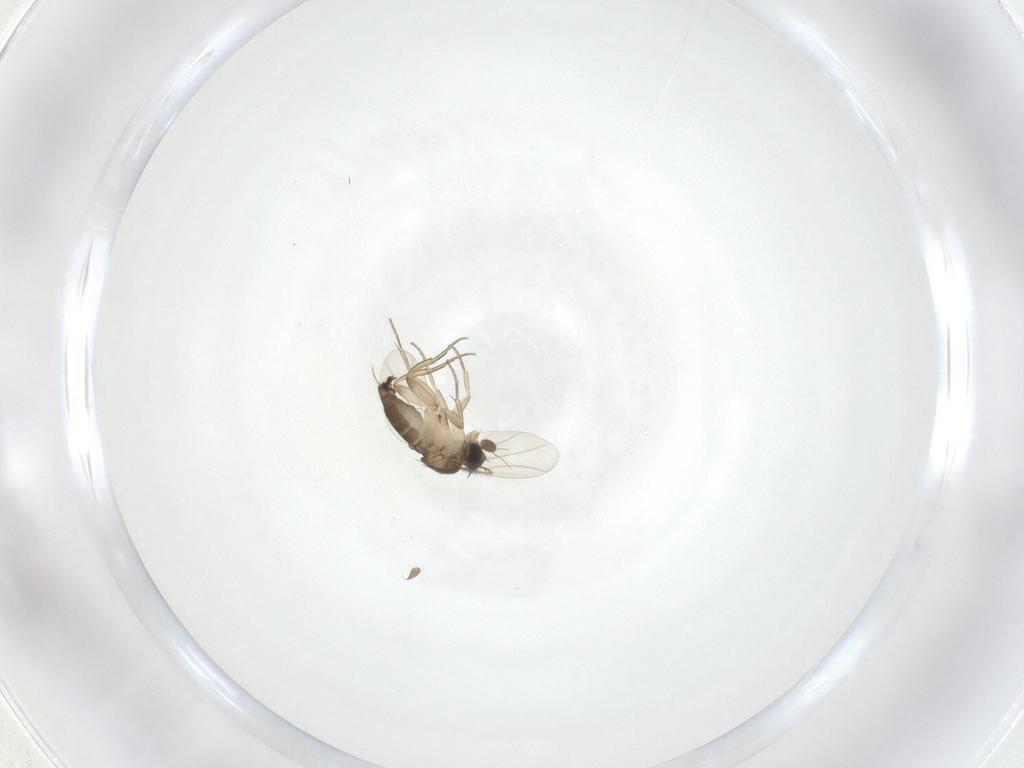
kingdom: Animalia
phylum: Arthropoda
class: Insecta
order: Diptera
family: Phoridae
